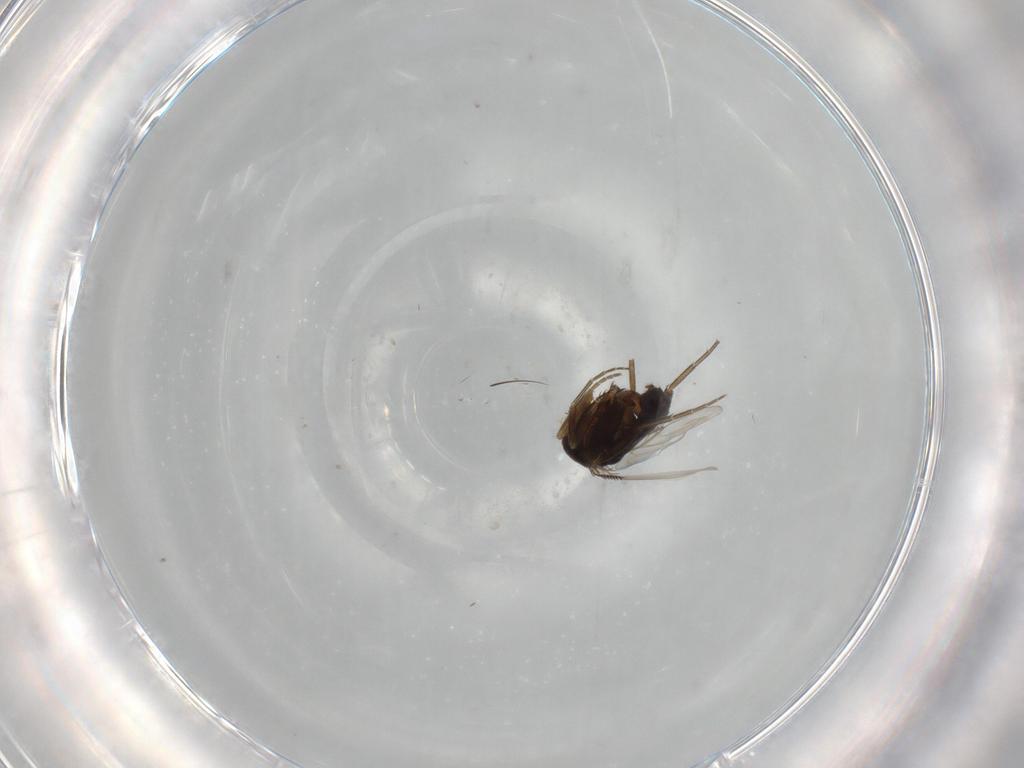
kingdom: Animalia
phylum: Arthropoda
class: Insecta
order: Diptera
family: Phoridae
